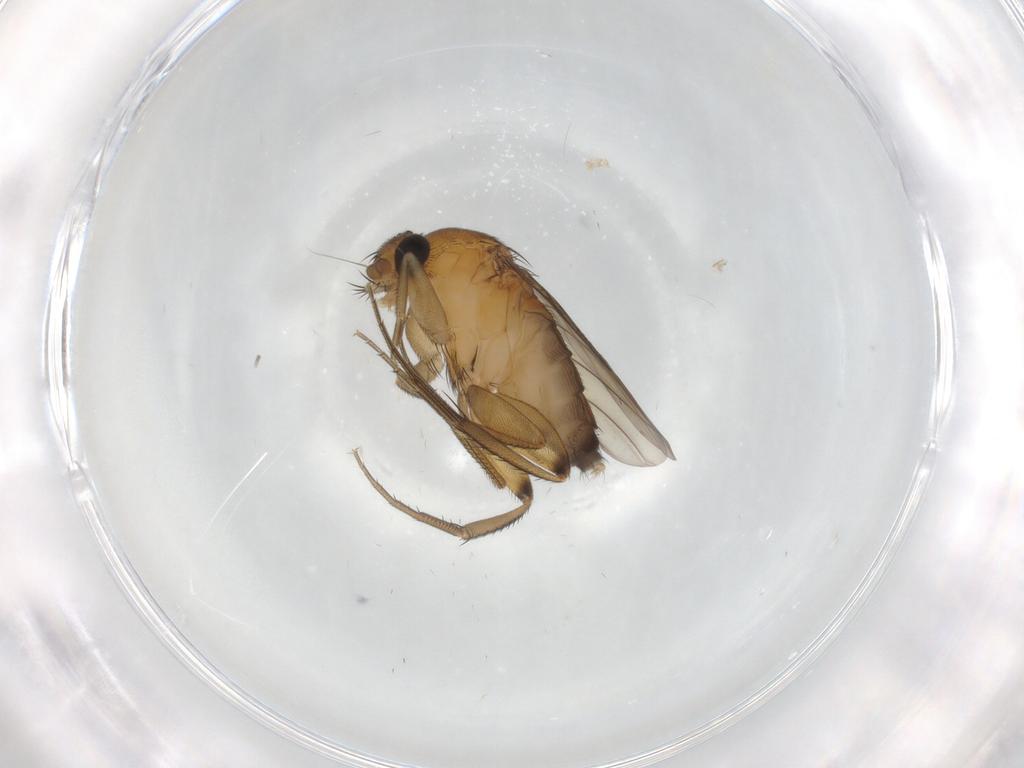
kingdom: Animalia
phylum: Arthropoda
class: Insecta
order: Diptera
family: Phoridae
